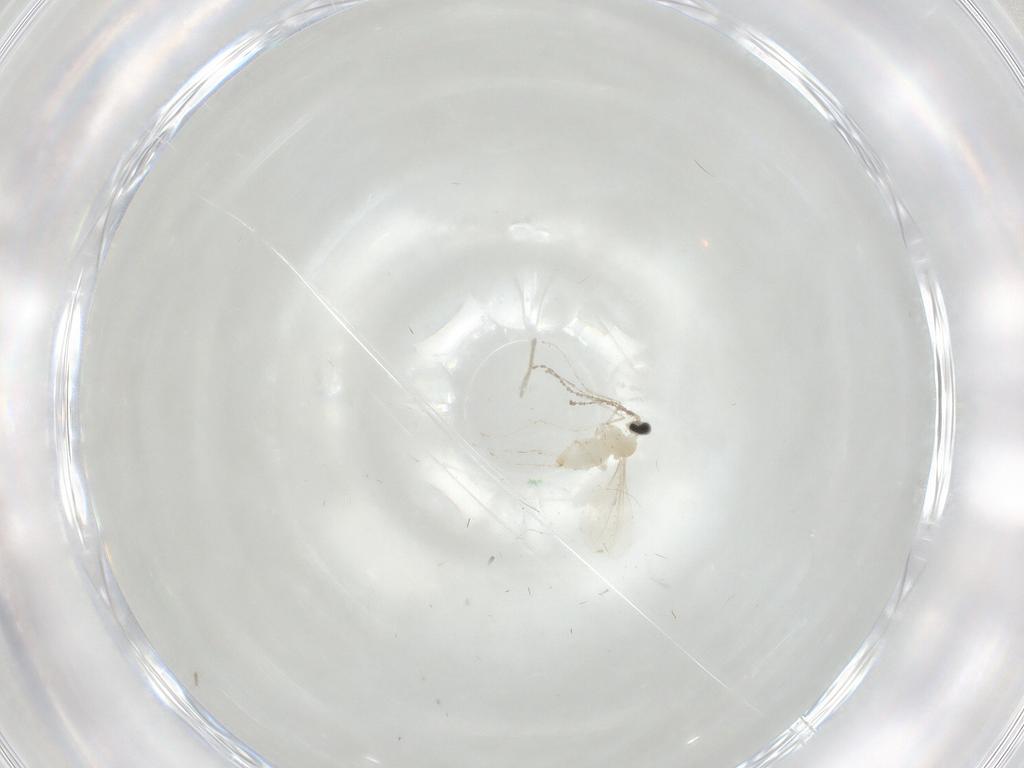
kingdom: Animalia
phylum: Arthropoda
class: Insecta
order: Diptera
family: Cecidomyiidae
